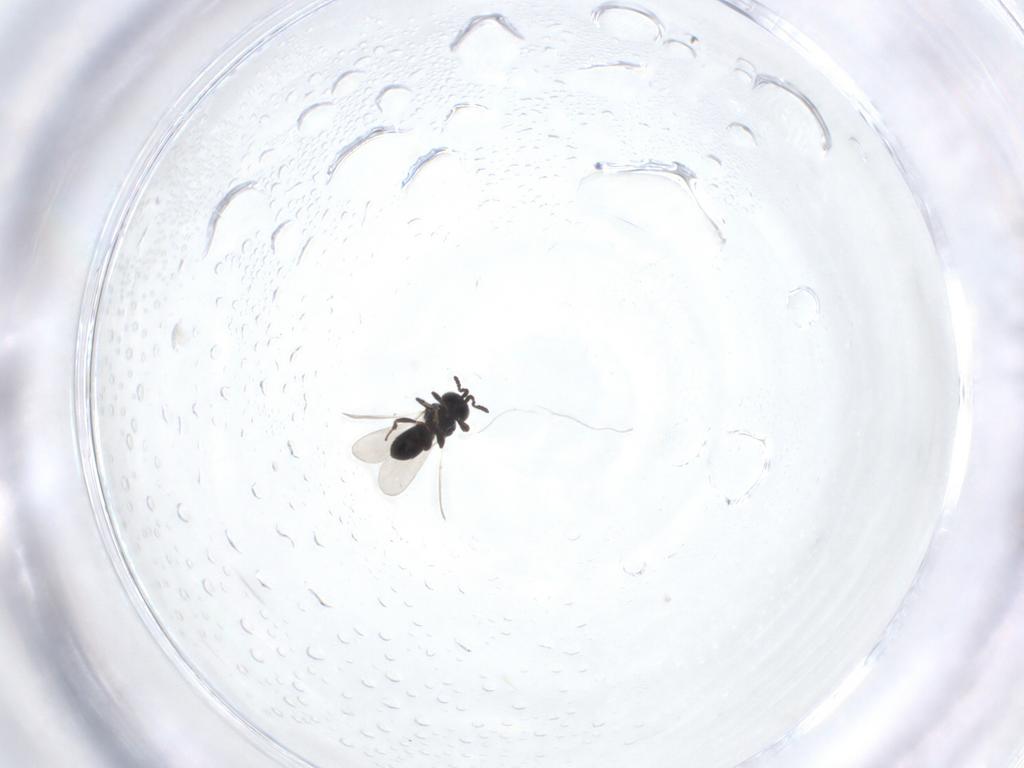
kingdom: Animalia
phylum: Arthropoda
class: Insecta
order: Hymenoptera
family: Platygastridae
